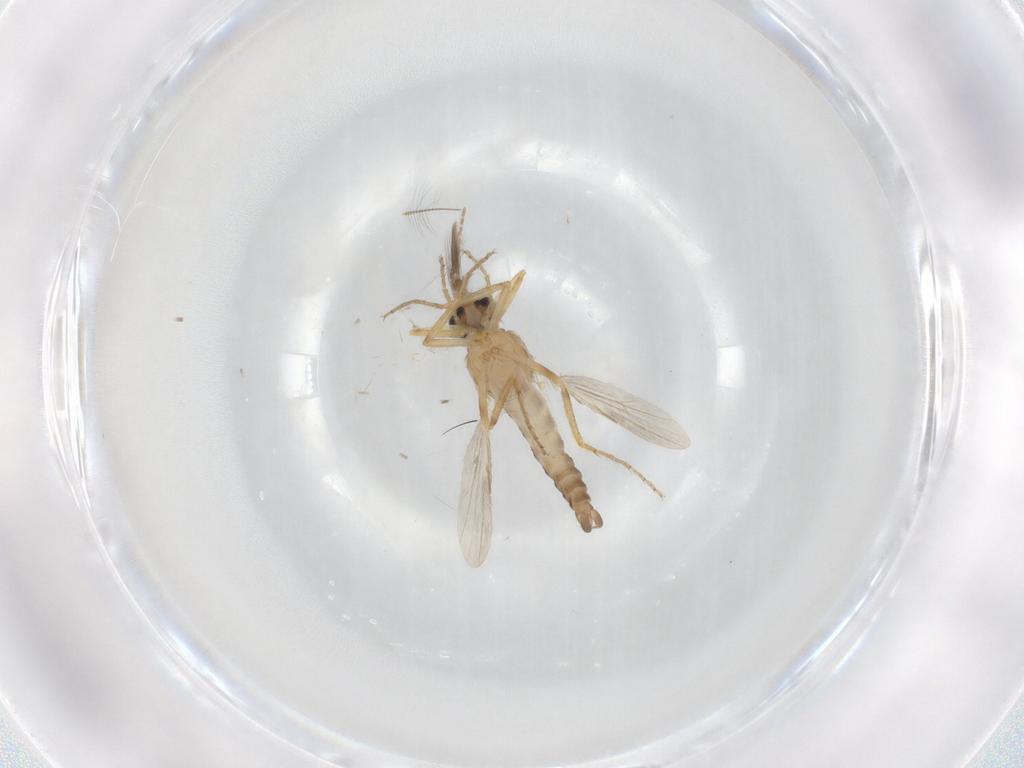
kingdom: Animalia
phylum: Arthropoda
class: Insecta
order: Diptera
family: Ceratopogonidae
